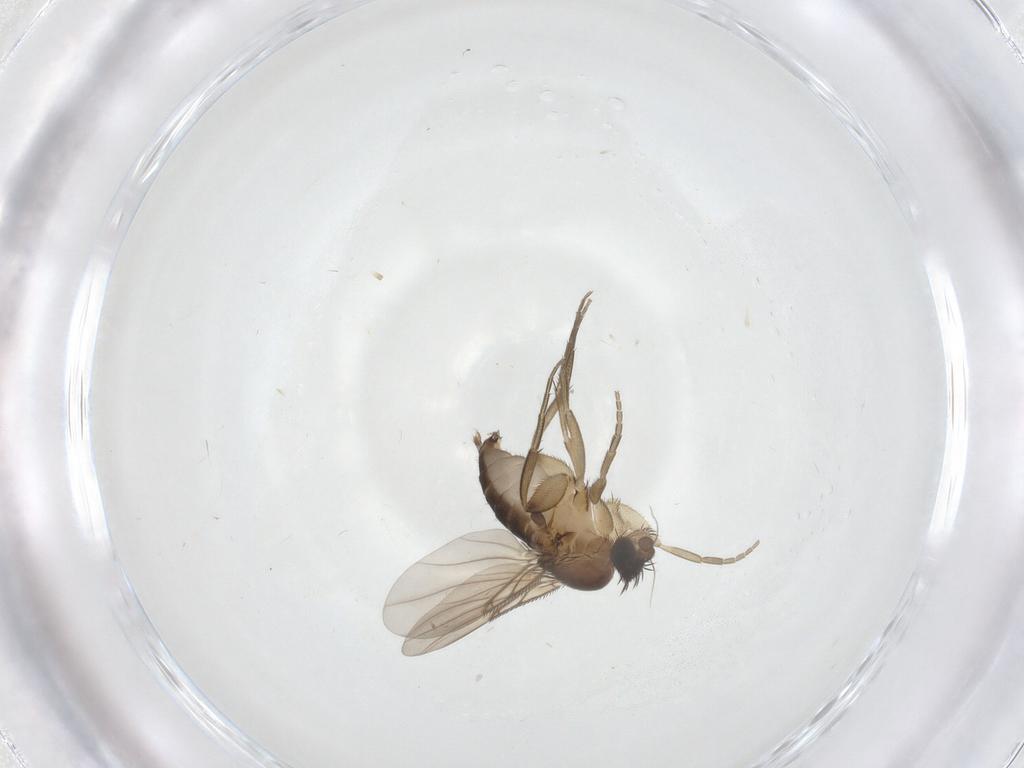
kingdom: Animalia
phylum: Arthropoda
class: Insecta
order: Diptera
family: Phoridae
